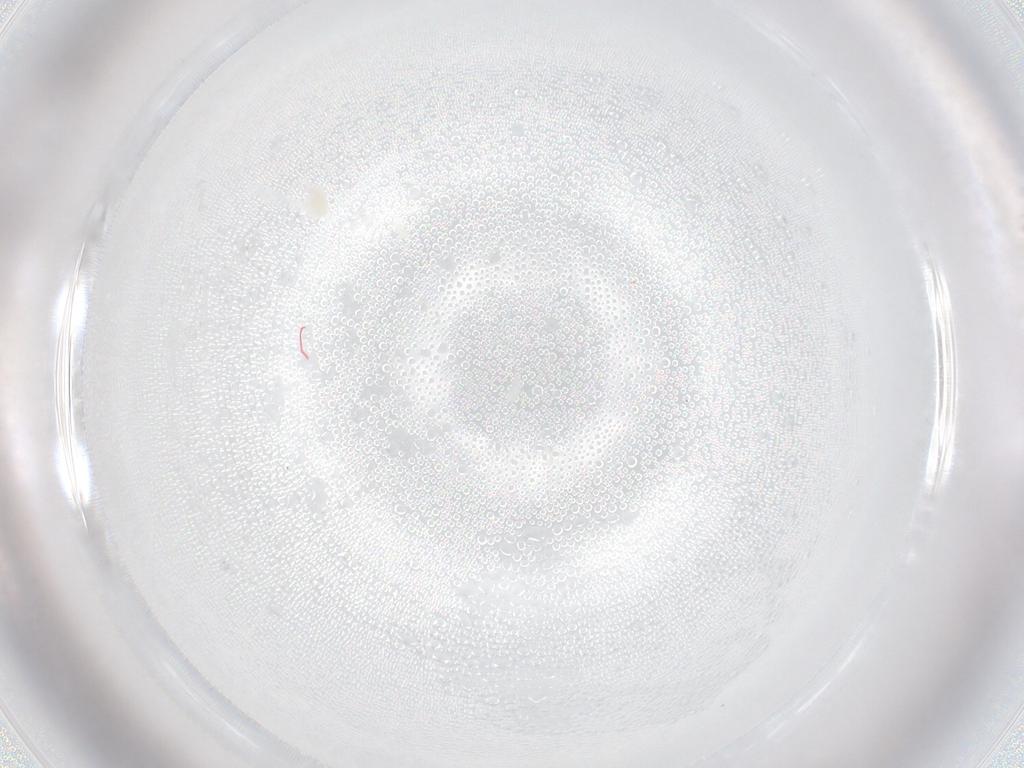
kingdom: Animalia
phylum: Arthropoda
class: Arachnida
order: Trombidiformes
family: Eupodidae
